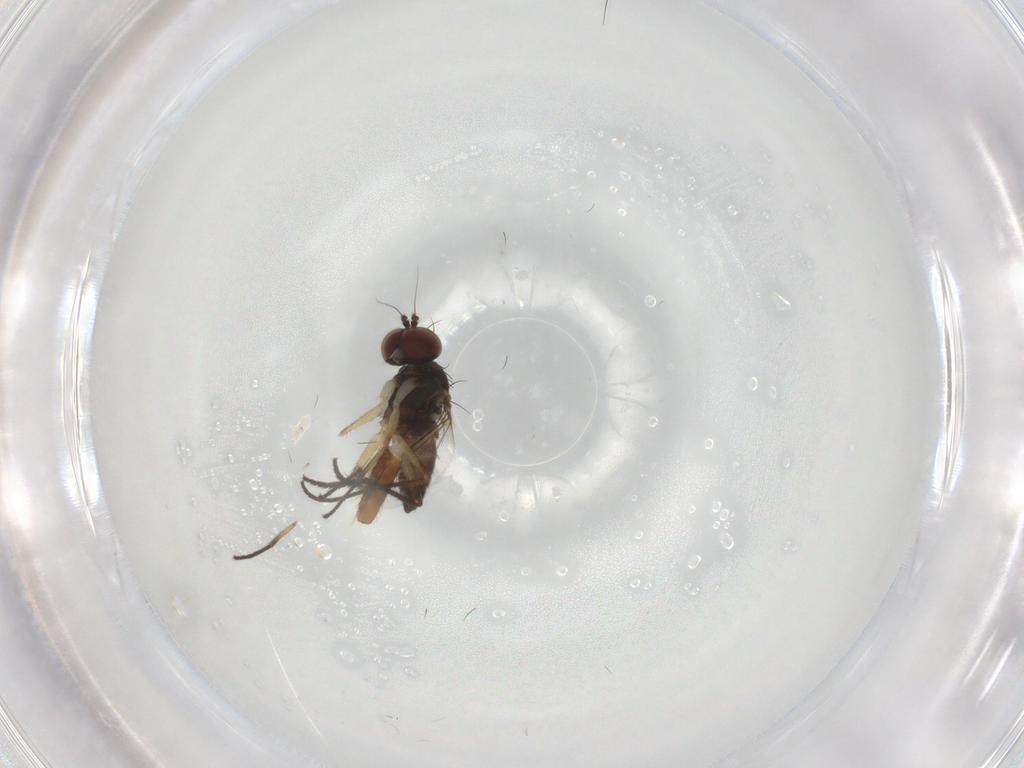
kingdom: Animalia
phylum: Arthropoda
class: Insecta
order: Diptera
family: Dolichopodidae
